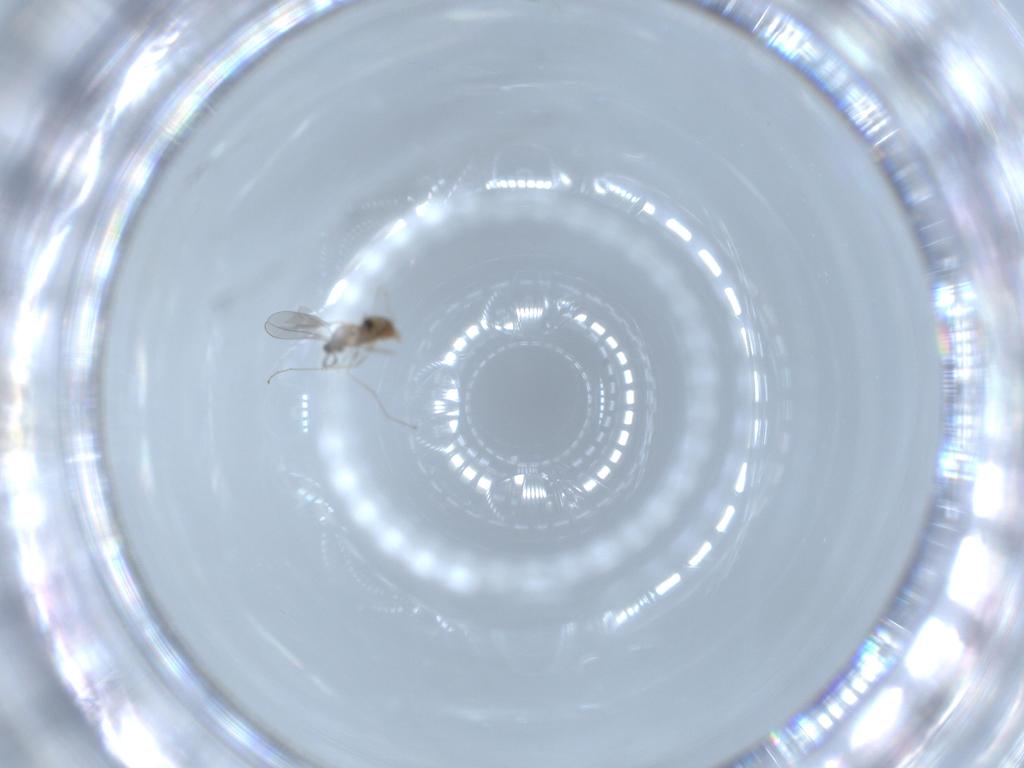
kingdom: Animalia
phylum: Arthropoda
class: Insecta
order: Diptera
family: Cecidomyiidae
